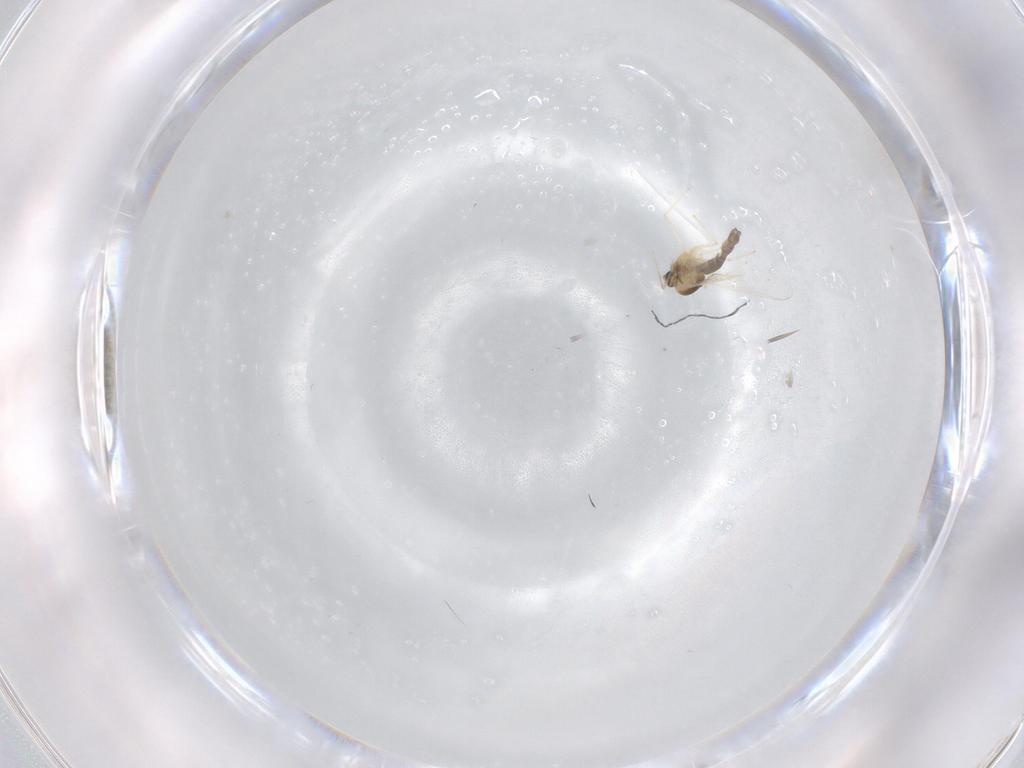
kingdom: Animalia
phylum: Arthropoda
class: Insecta
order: Diptera
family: Chironomidae
